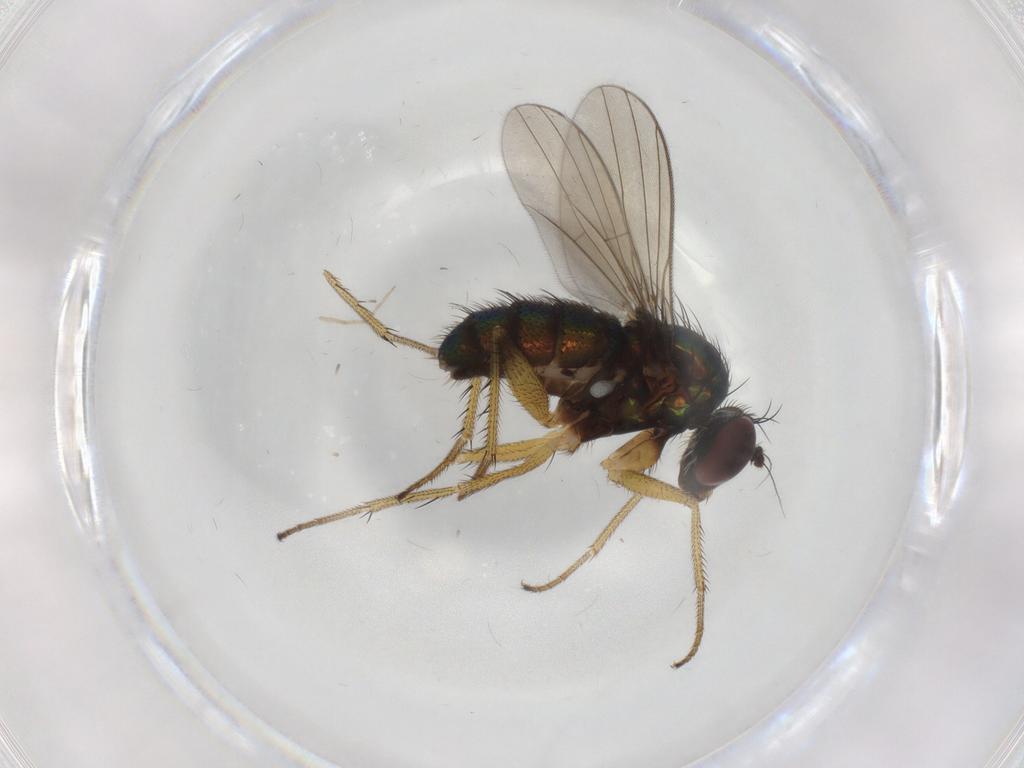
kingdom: Animalia
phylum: Arthropoda
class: Insecta
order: Diptera
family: Dolichopodidae
